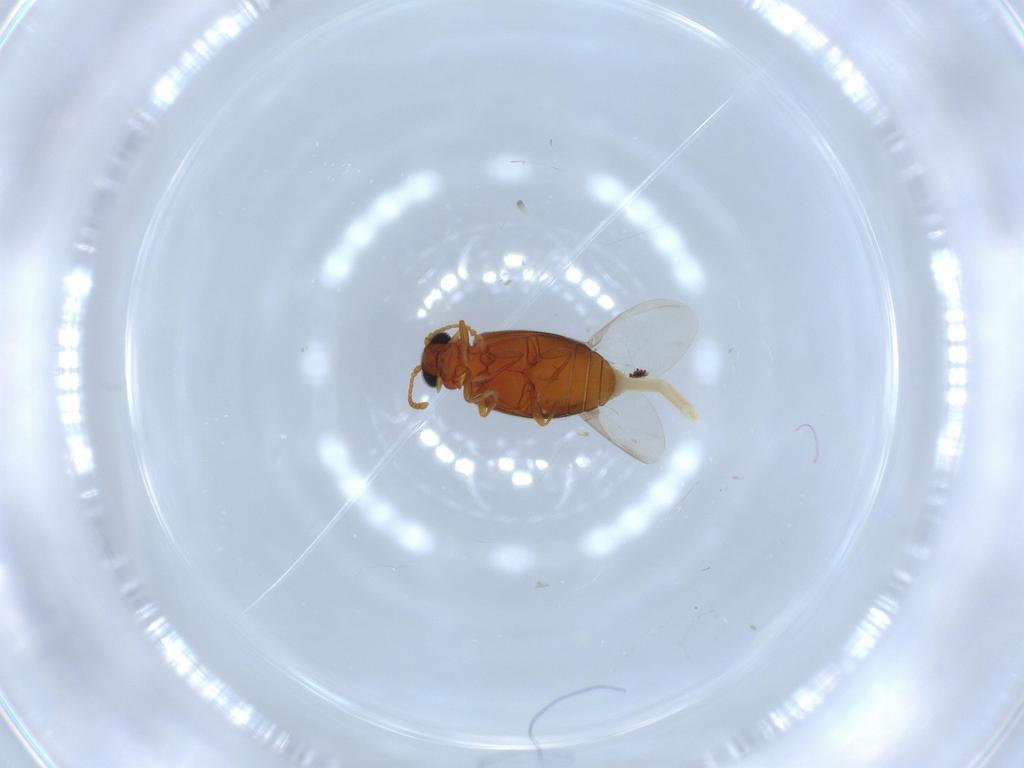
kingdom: Animalia
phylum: Arthropoda
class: Insecta
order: Coleoptera
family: Aderidae
